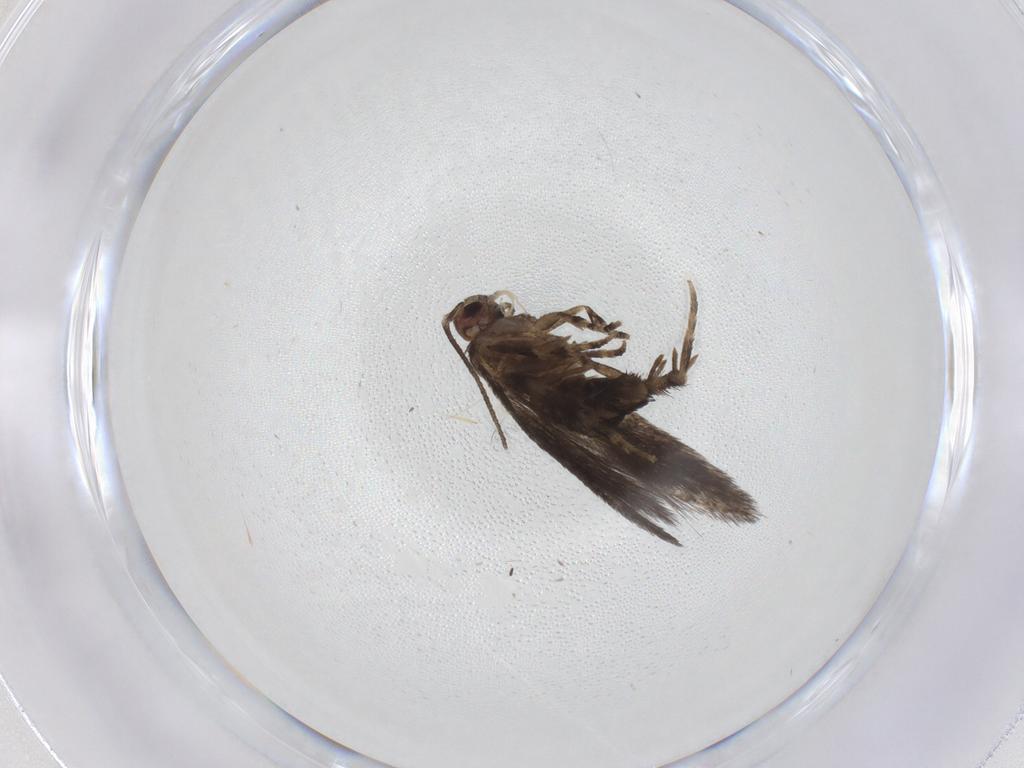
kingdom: Animalia
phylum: Arthropoda
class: Insecta
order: Lepidoptera
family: Elachistidae
